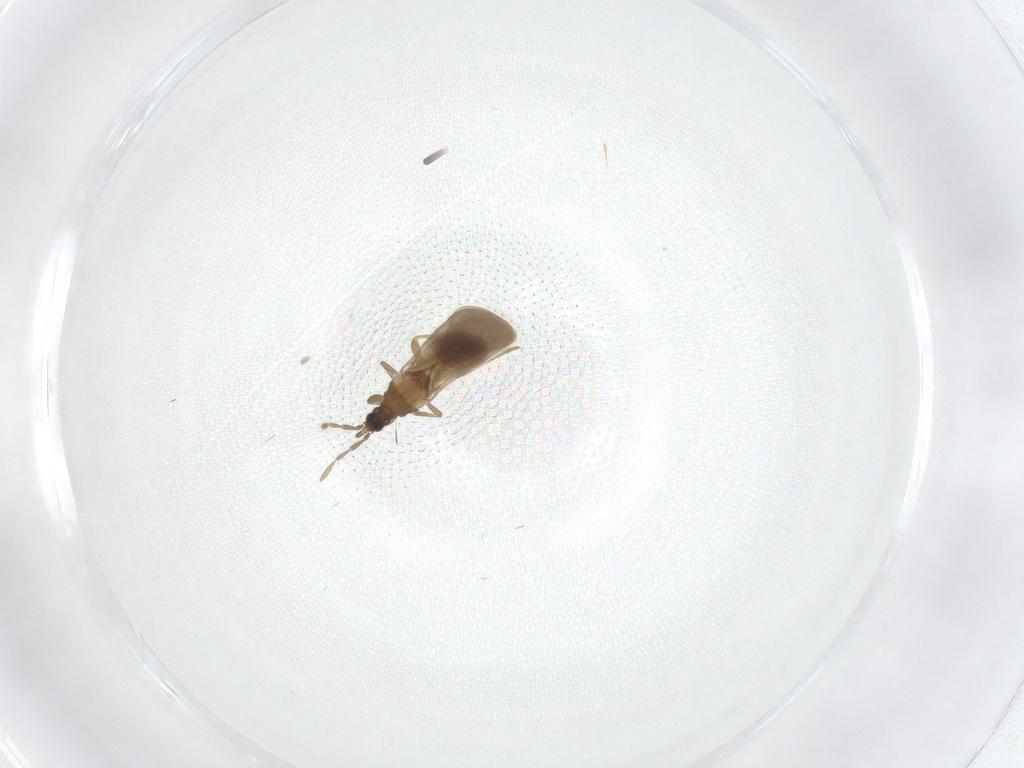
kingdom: Animalia
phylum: Arthropoda
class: Insecta
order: Hemiptera
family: Enicocephalidae
